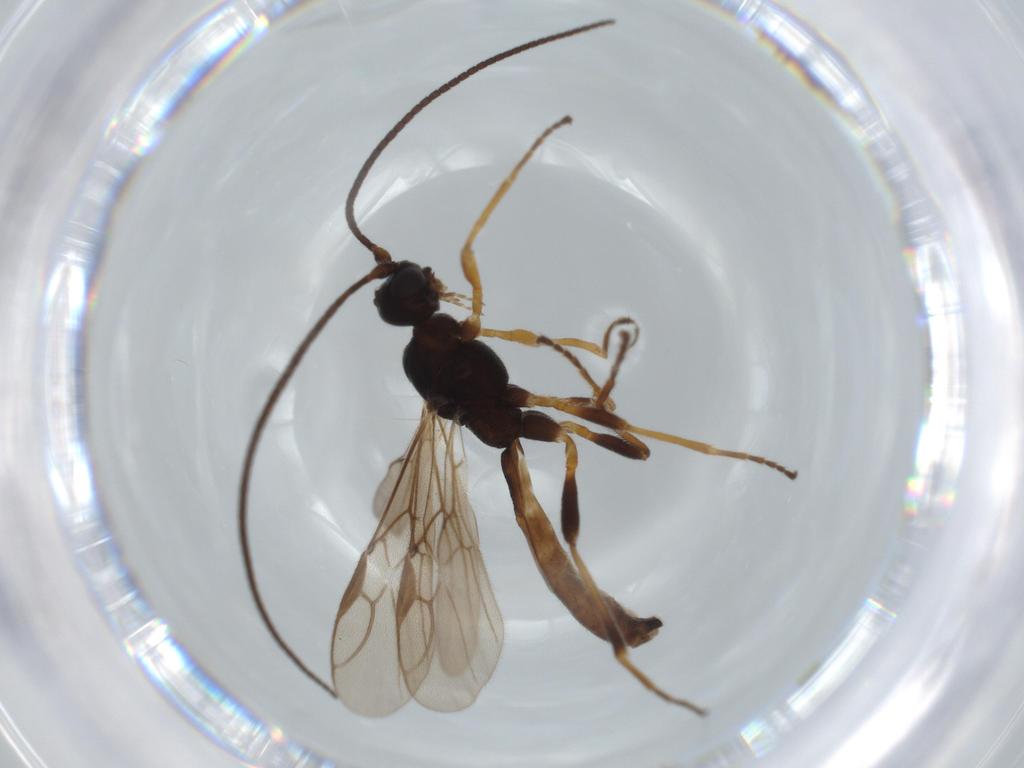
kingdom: Animalia
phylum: Arthropoda
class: Insecta
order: Hymenoptera
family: Braconidae
